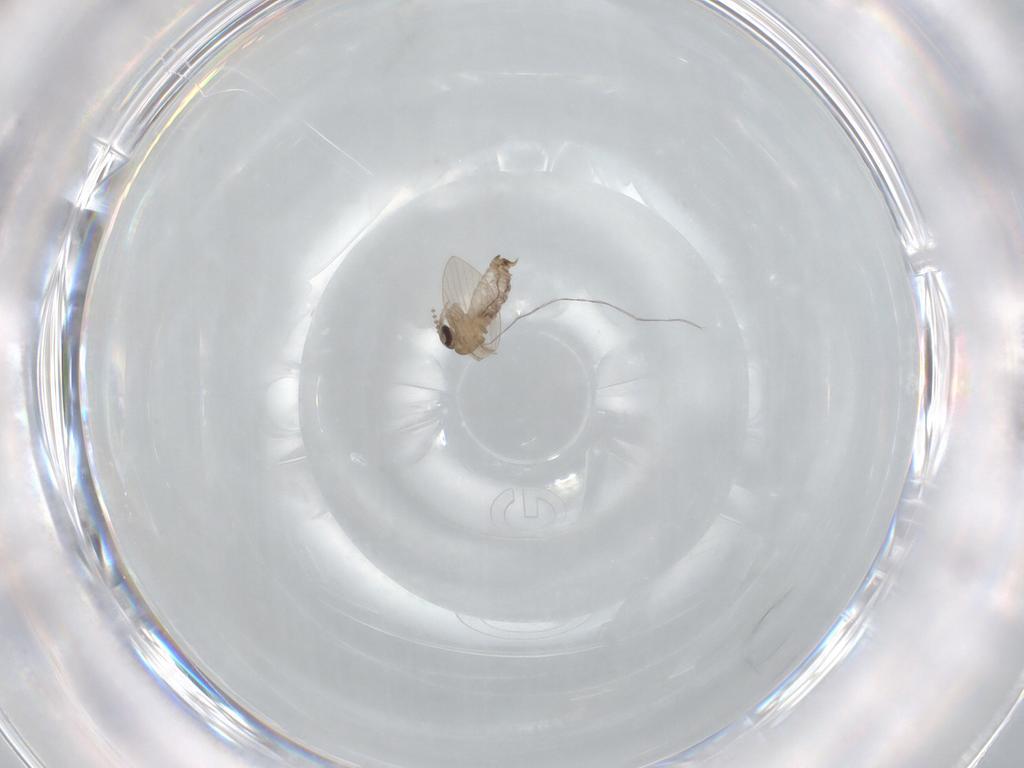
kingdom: Animalia
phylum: Arthropoda
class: Insecta
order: Diptera
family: Psychodidae
